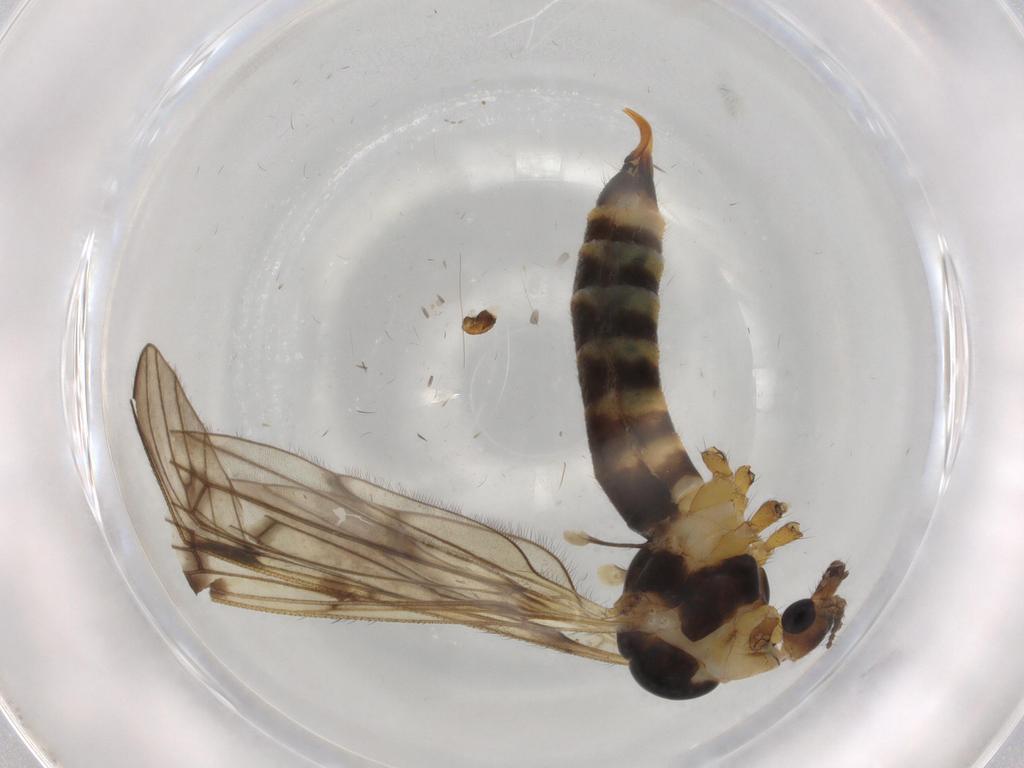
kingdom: Animalia
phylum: Arthropoda
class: Insecta
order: Diptera
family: Limoniidae
